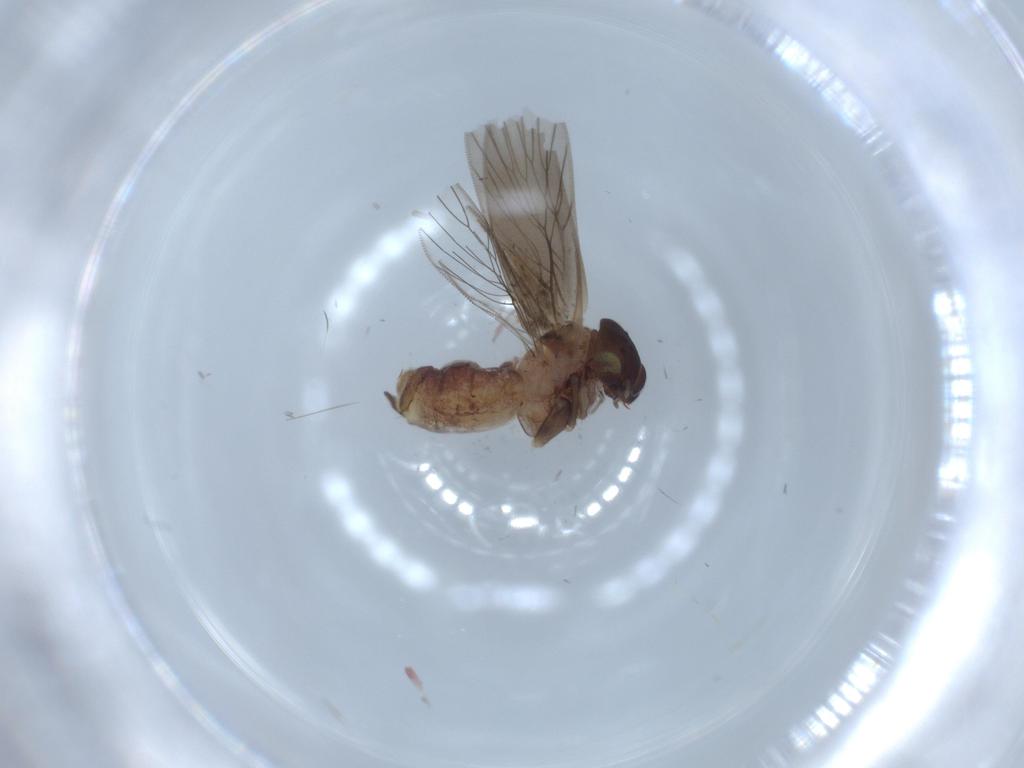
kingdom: Animalia
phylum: Arthropoda
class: Insecta
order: Psocodea
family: Lepidopsocidae
